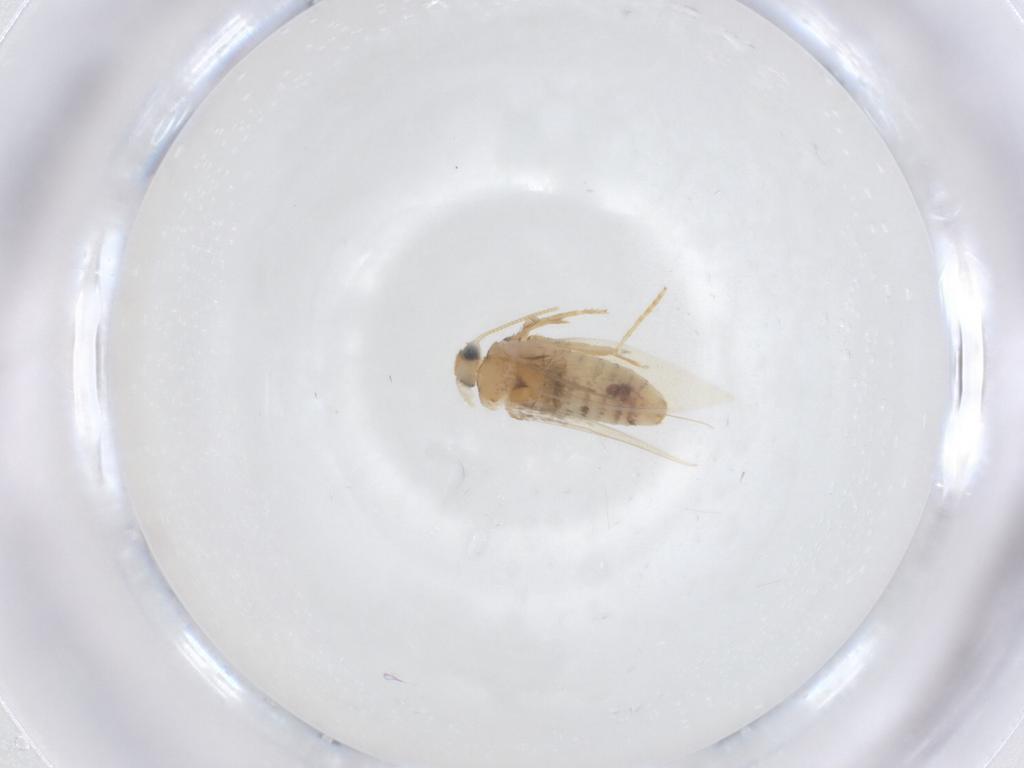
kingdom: Animalia
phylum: Arthropoda
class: Insecta
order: Lepidoptera
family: Nepticulidae
